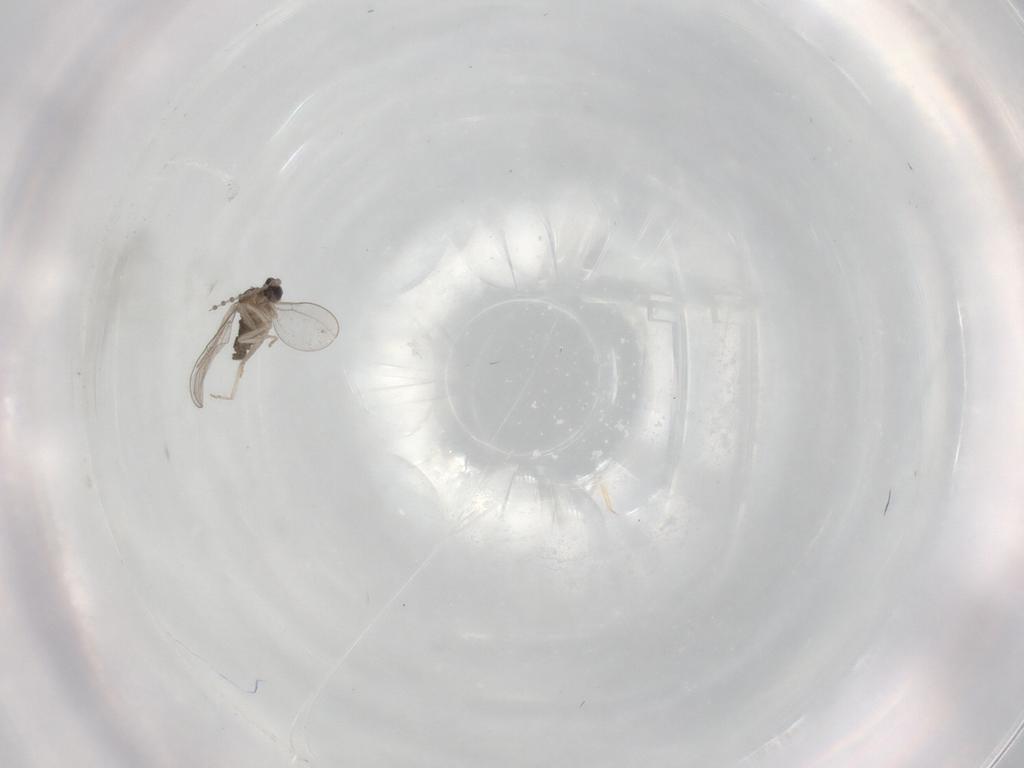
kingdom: Animalia
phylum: Arthropoda
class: Insecta
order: Diptera
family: Cecidomyiidae
